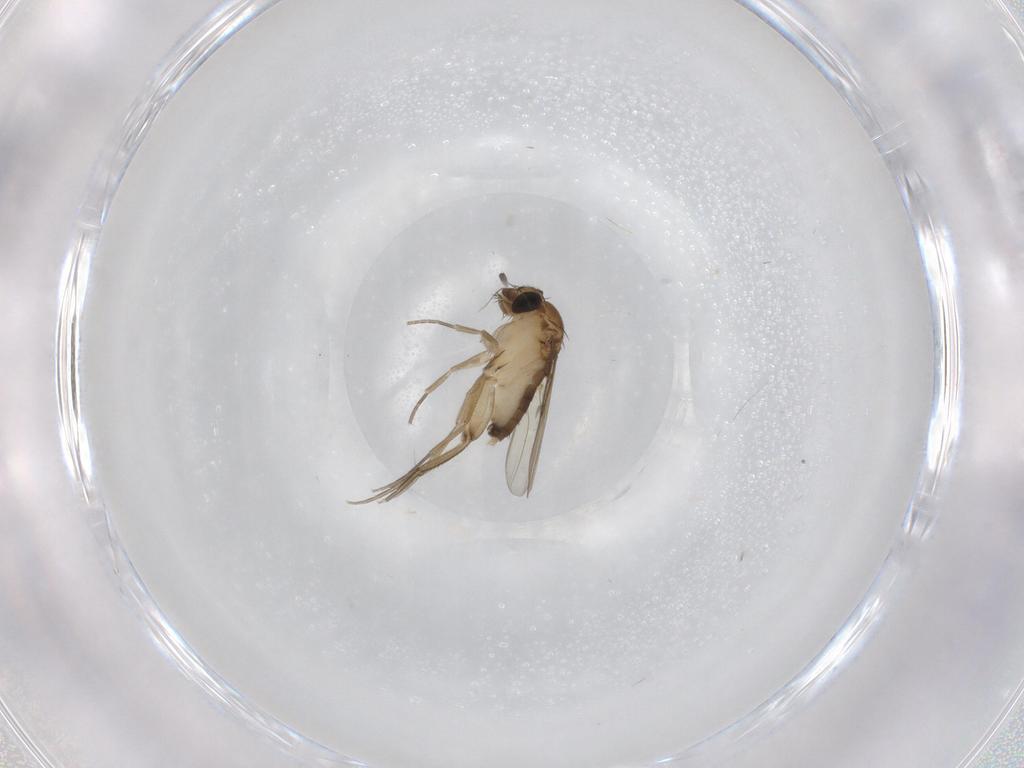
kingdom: Animalia
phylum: Arthropoda
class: Insecta
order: Diptera
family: Phoridae
